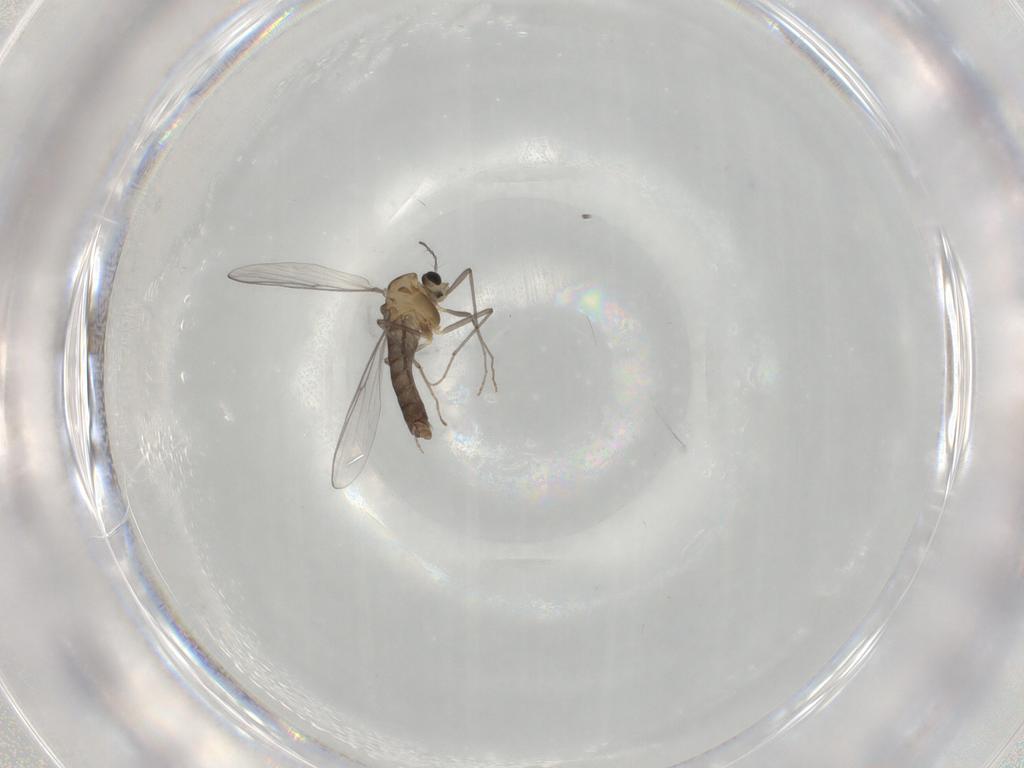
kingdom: Animalia
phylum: Arthropoda
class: Insecta
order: Diptera
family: Chironomidae
